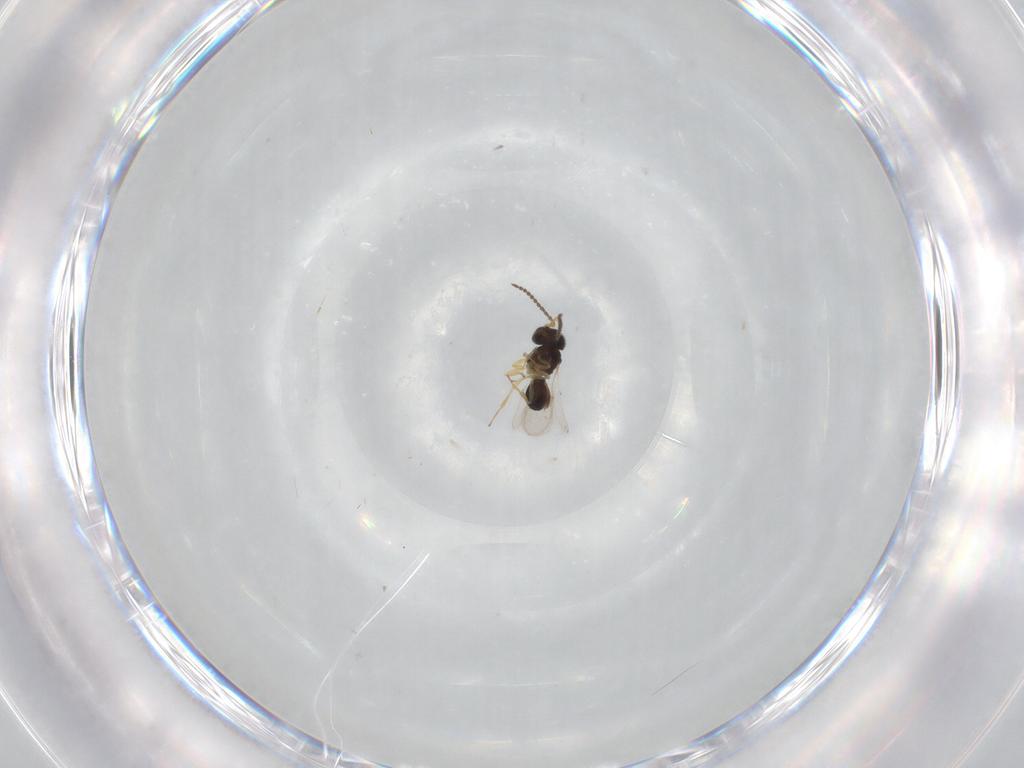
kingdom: Animalia
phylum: Arthropoda
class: Insecta
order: Hymenoptera
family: Scelionidae
